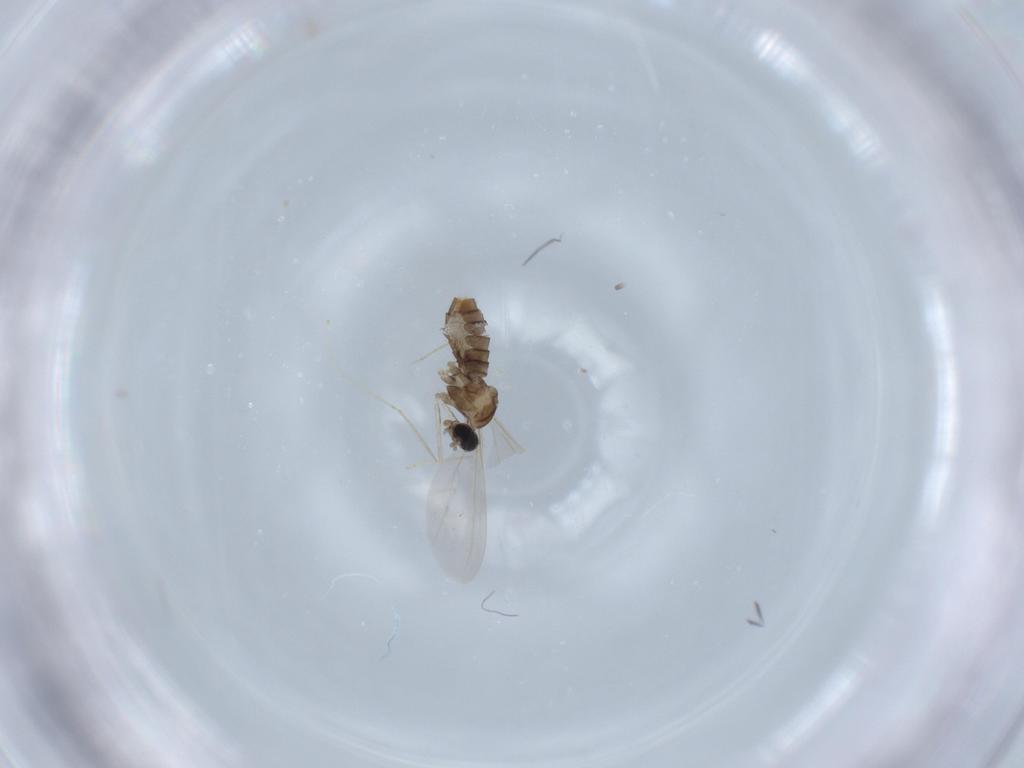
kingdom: Animalia
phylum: Arthropoda
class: Insecta
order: Diptera
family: Cecidomyiidae
